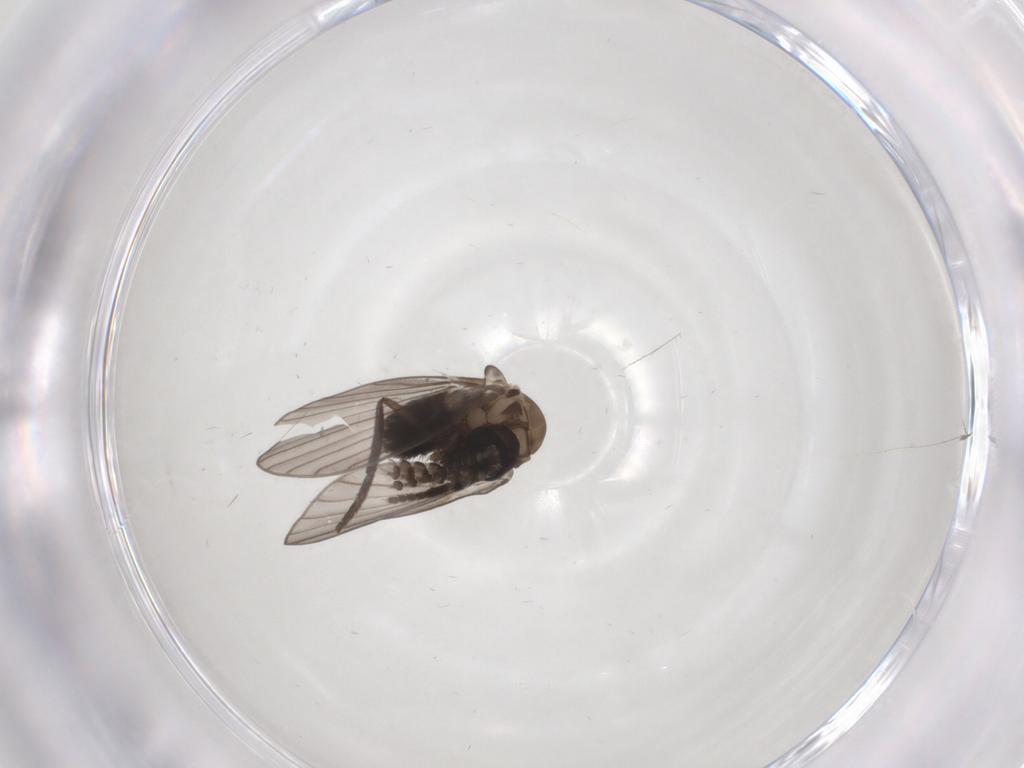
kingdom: Animalia
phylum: Arthropoda
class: Insecta
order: Diptera
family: Psychodidae
